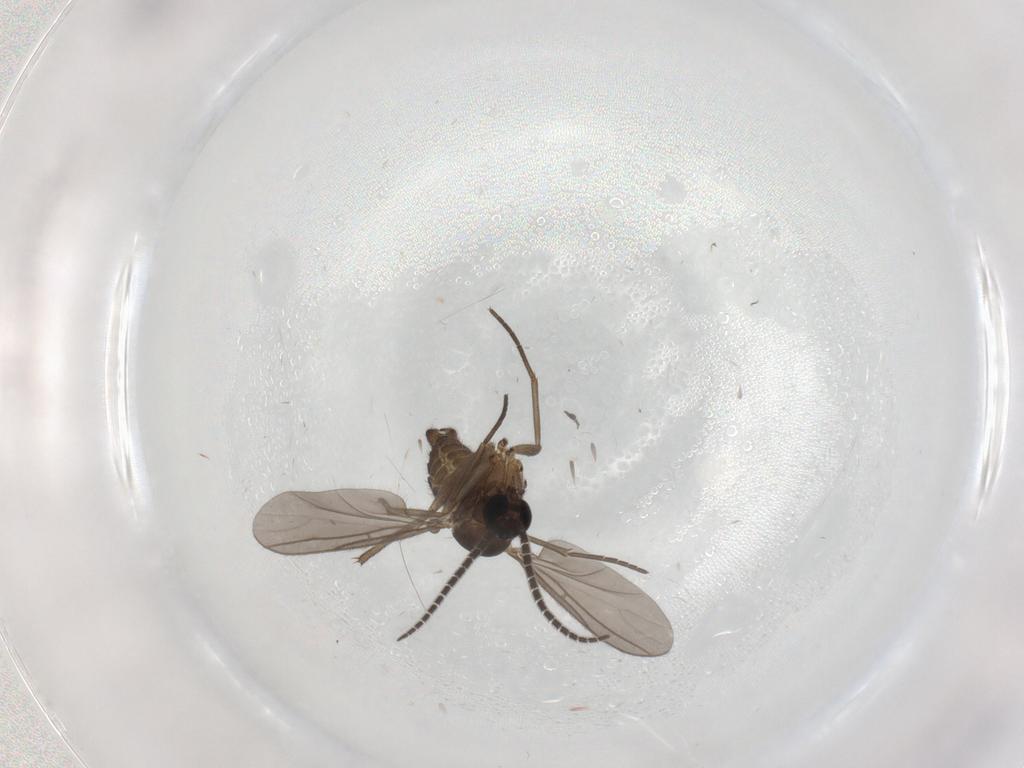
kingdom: Animalia
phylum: Arthropoda
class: Insecta
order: Diptera
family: Sciaridae
